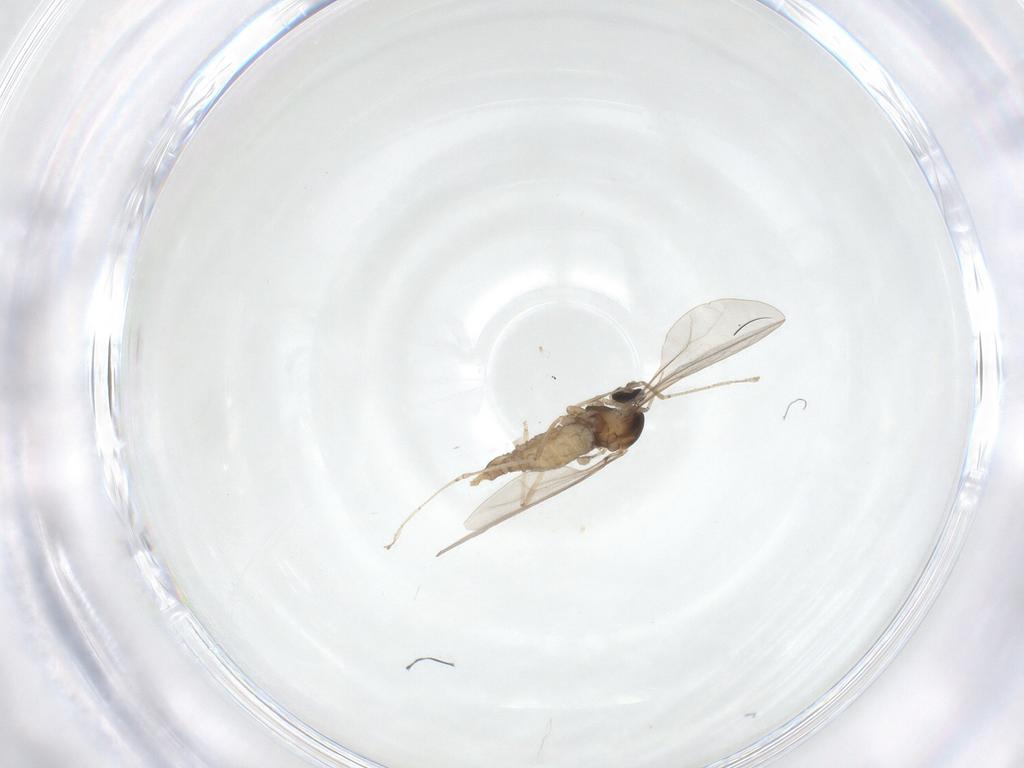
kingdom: Animalia
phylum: Arthropoda
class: Insecta
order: Diptera
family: Cecidomyiidae
